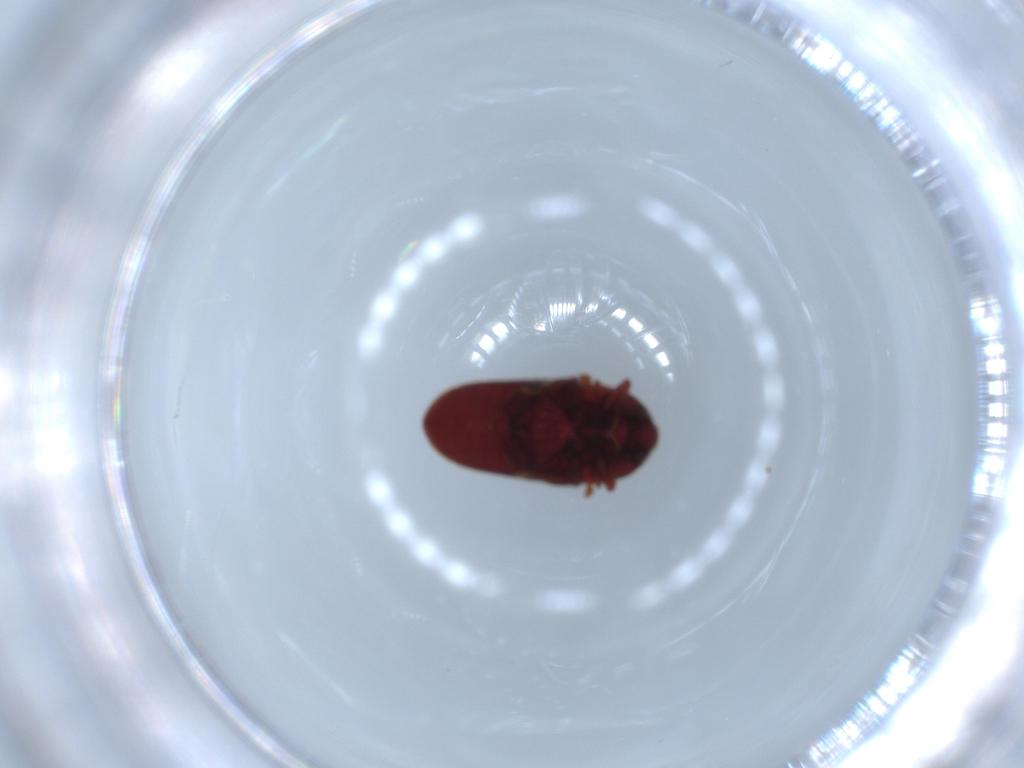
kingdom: Animalia
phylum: Arthropoda
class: Insecta
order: Coleoptera
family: Throscidae
